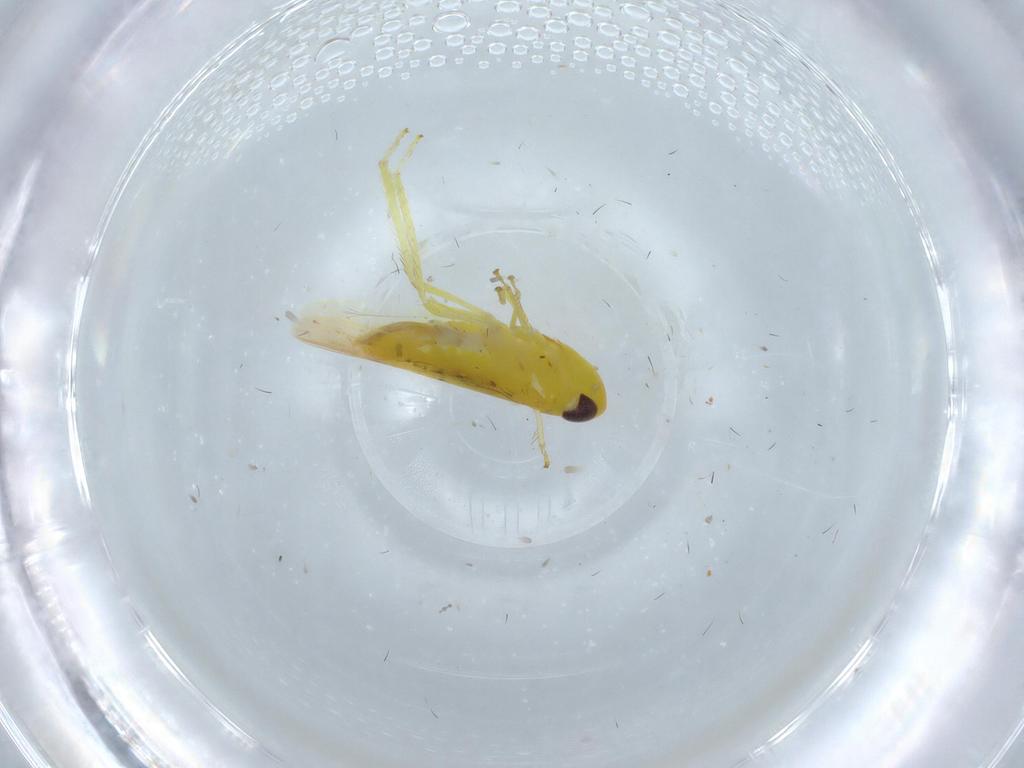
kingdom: Animalia
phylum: Arthropoda
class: Insecta
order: Hemiptera
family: Cicadellidae
